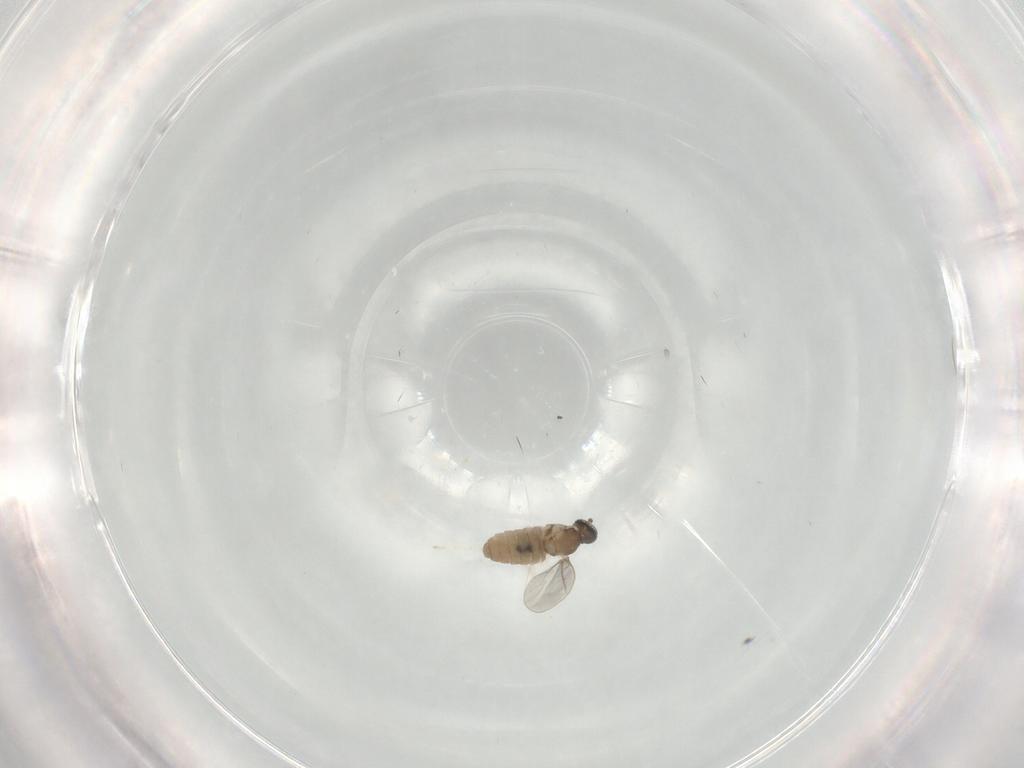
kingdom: Animalia
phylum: Arthropoda
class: Insecta
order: Diptera
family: Cecidomyiidae
